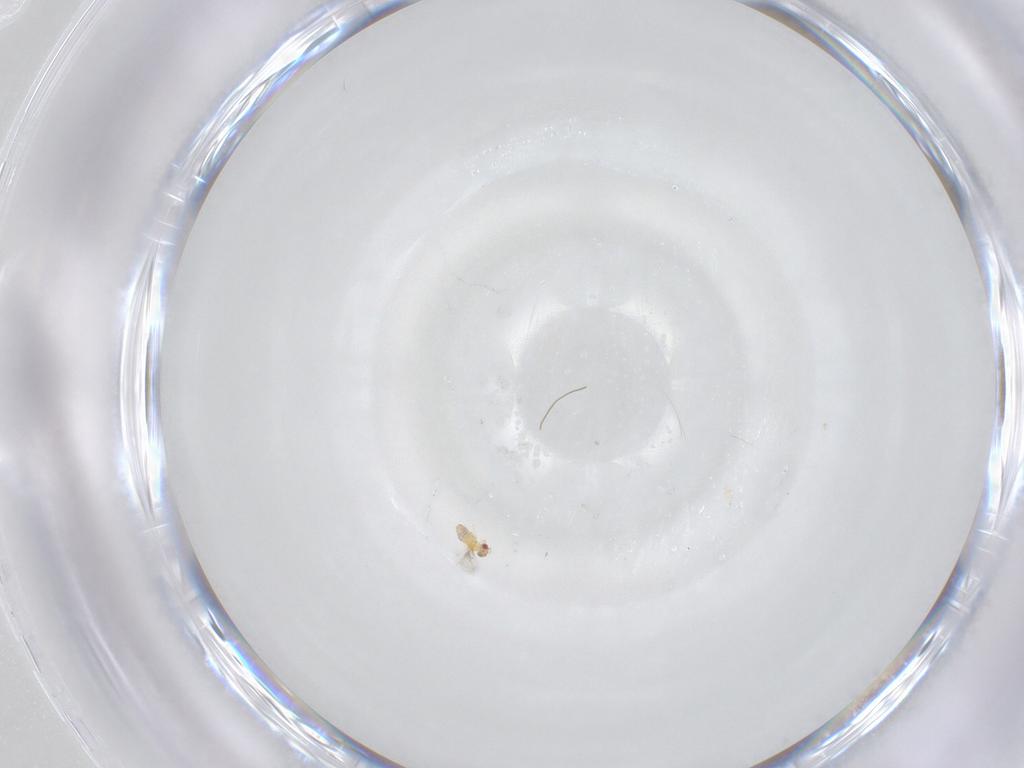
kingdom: Animalia
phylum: Arthropoda
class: Insecta
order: Hymenoptera
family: Trichogrammatidae
